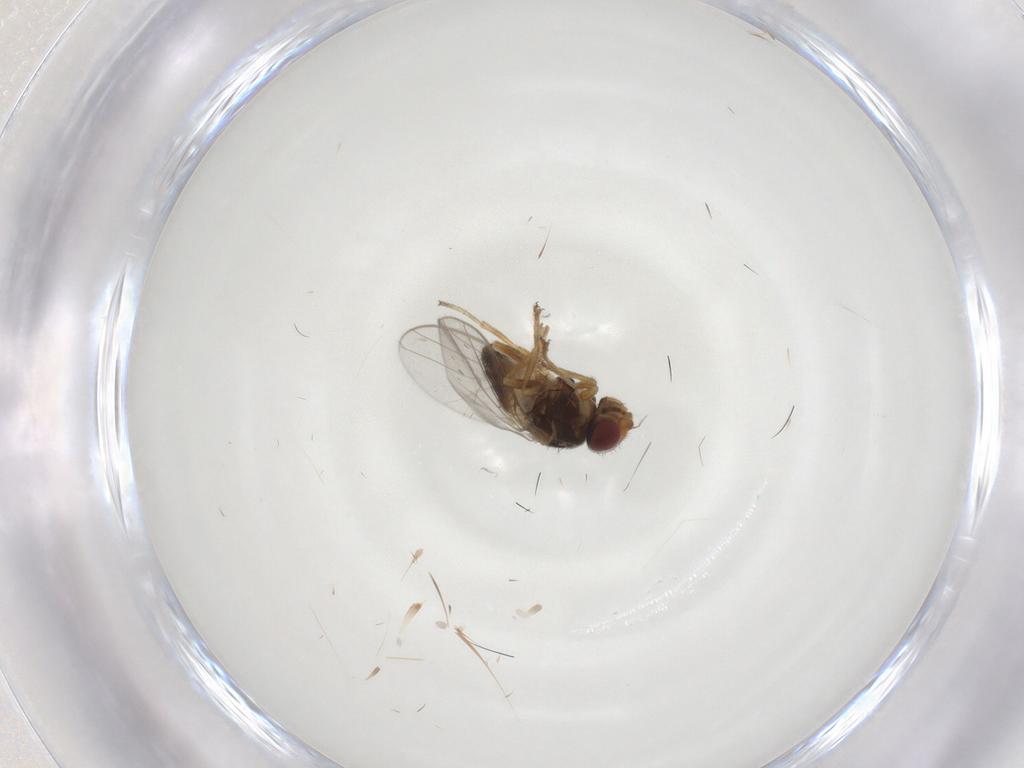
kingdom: Animalia
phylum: Arthropoda
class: Insecta
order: Diptera
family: Chloropidae
